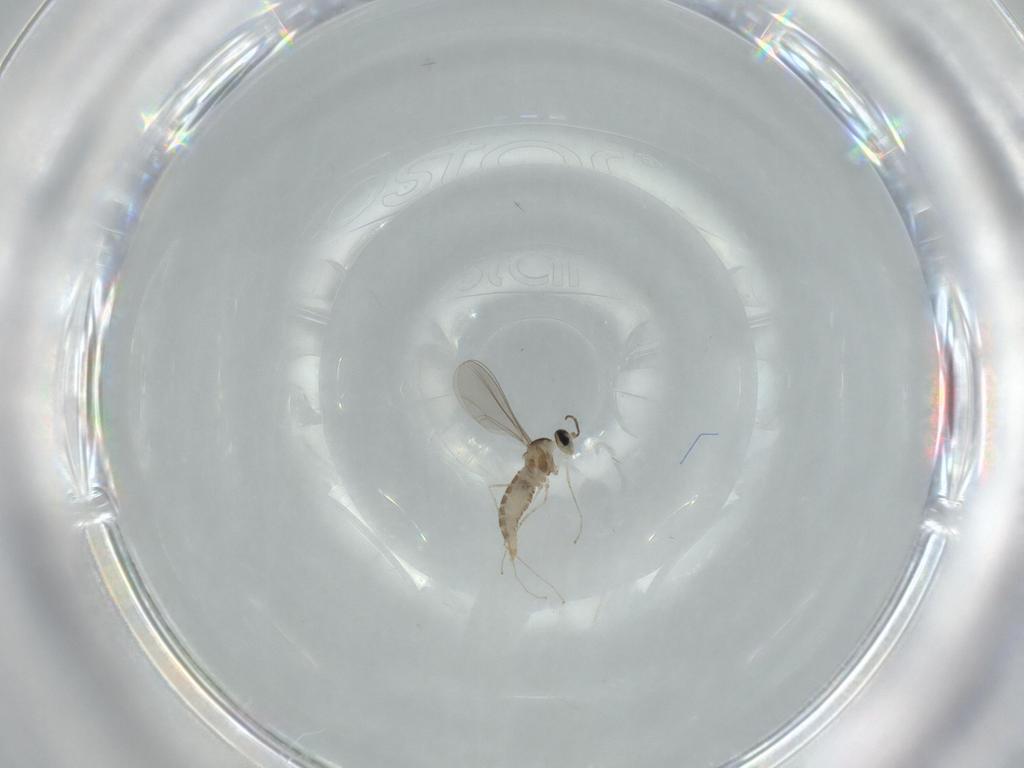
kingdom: Animalia
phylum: Arthropoda
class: Insecta
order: Diptera
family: Cecidomyiidae
